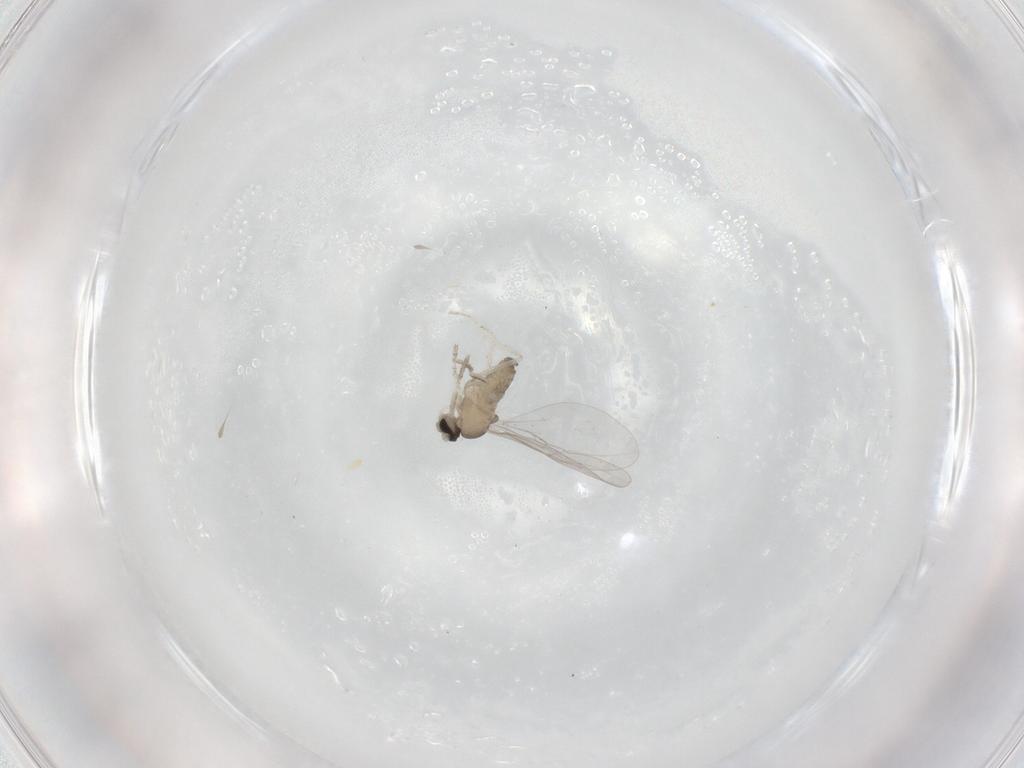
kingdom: Animalia
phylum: Arthropoda
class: Insecta
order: Diptera
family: Cecidomyiidae
